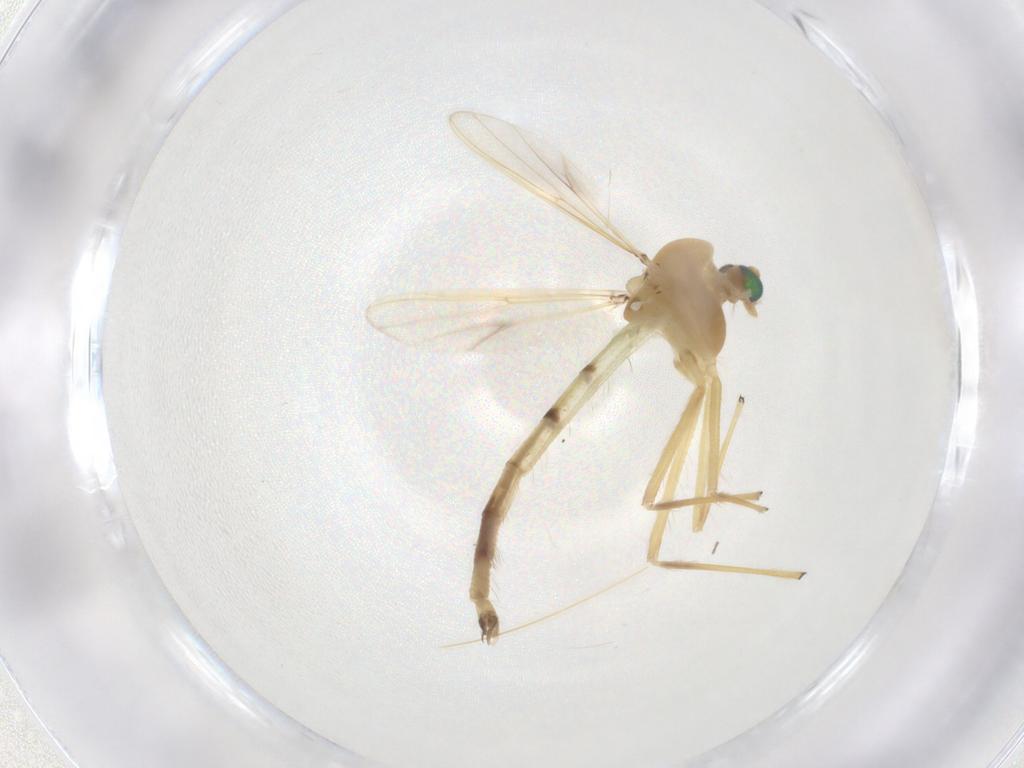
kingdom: Animalia
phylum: Arthropoda
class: Insecta
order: Diptera
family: Chironomidae
